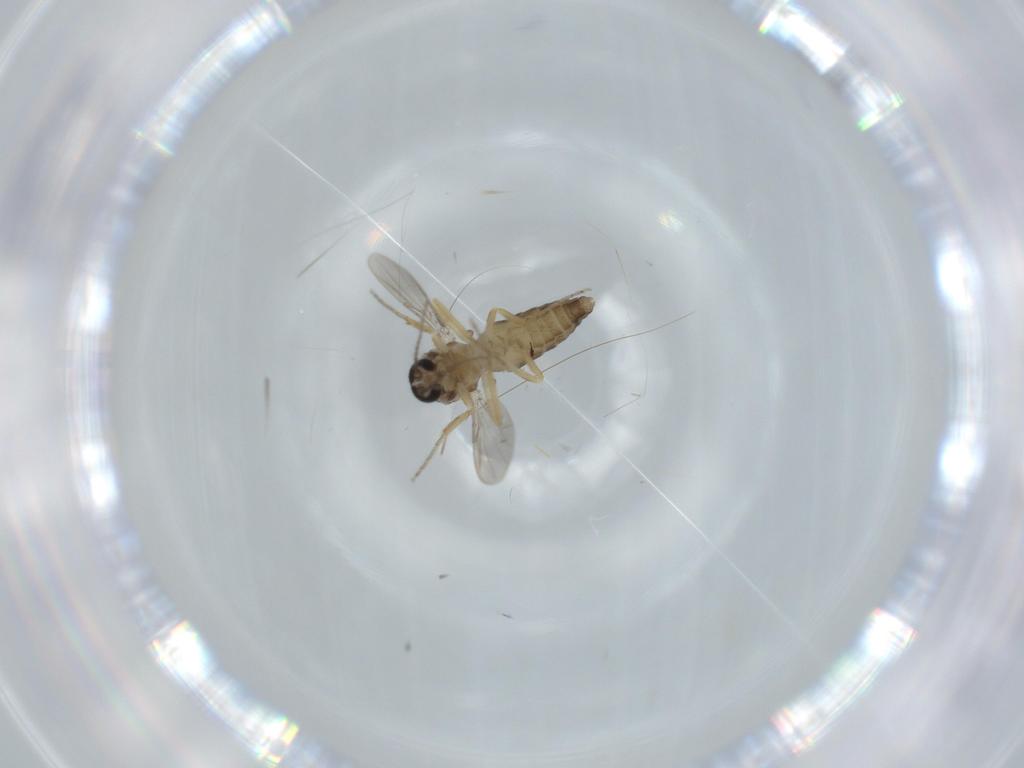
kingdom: Animalia
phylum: Arthropoda
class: Insecta
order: Diptera
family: Ceratopogonidae
